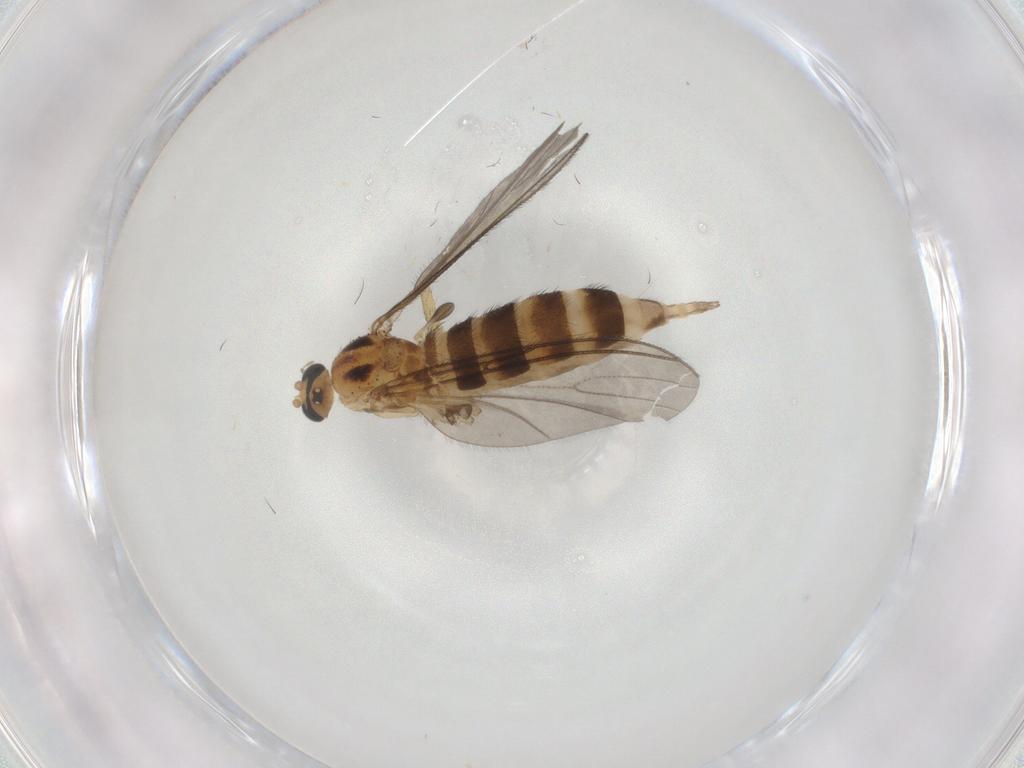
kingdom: Animalia
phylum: Arthropoda
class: Insecta
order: Diptera
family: Sciaridae
